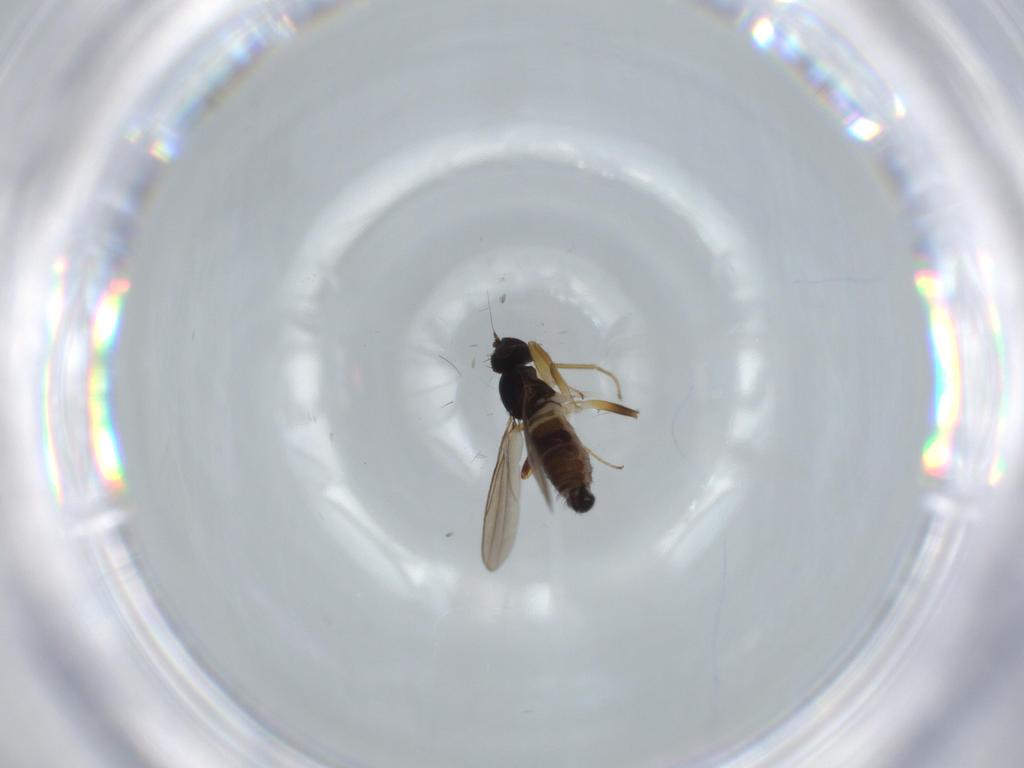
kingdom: Animalia
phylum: Arthropoda
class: Insecta
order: Diptera
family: Hybotidae
